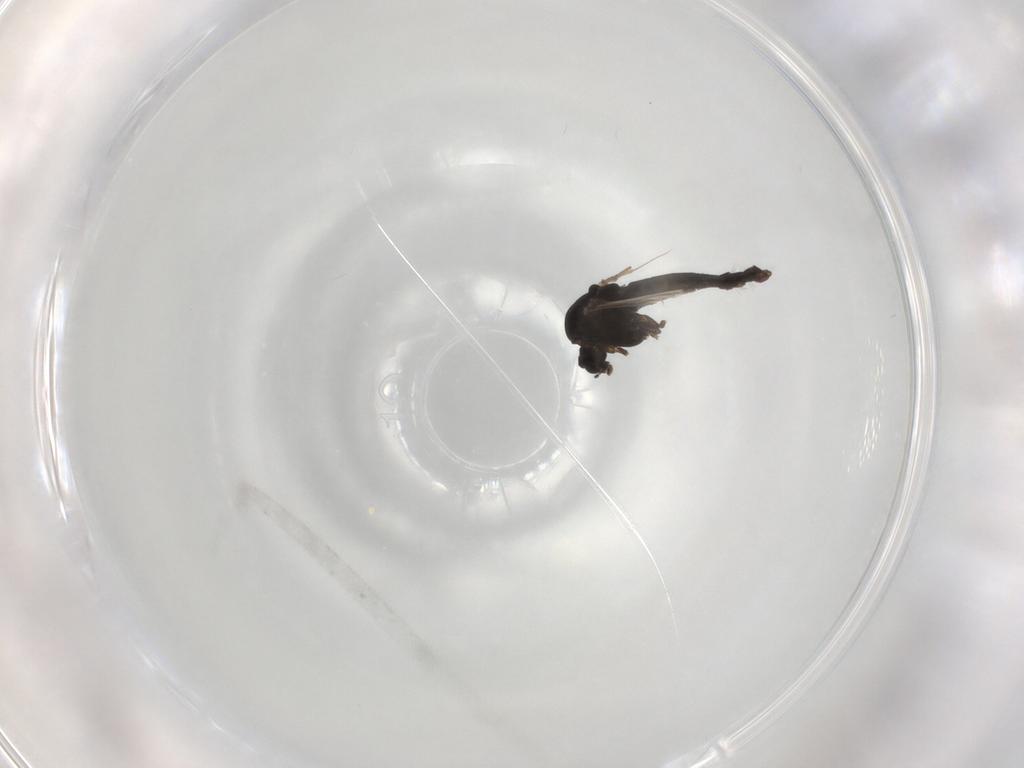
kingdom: Animalia
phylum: Arthropoda
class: Insecta
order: Diptera
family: Chironomidae
